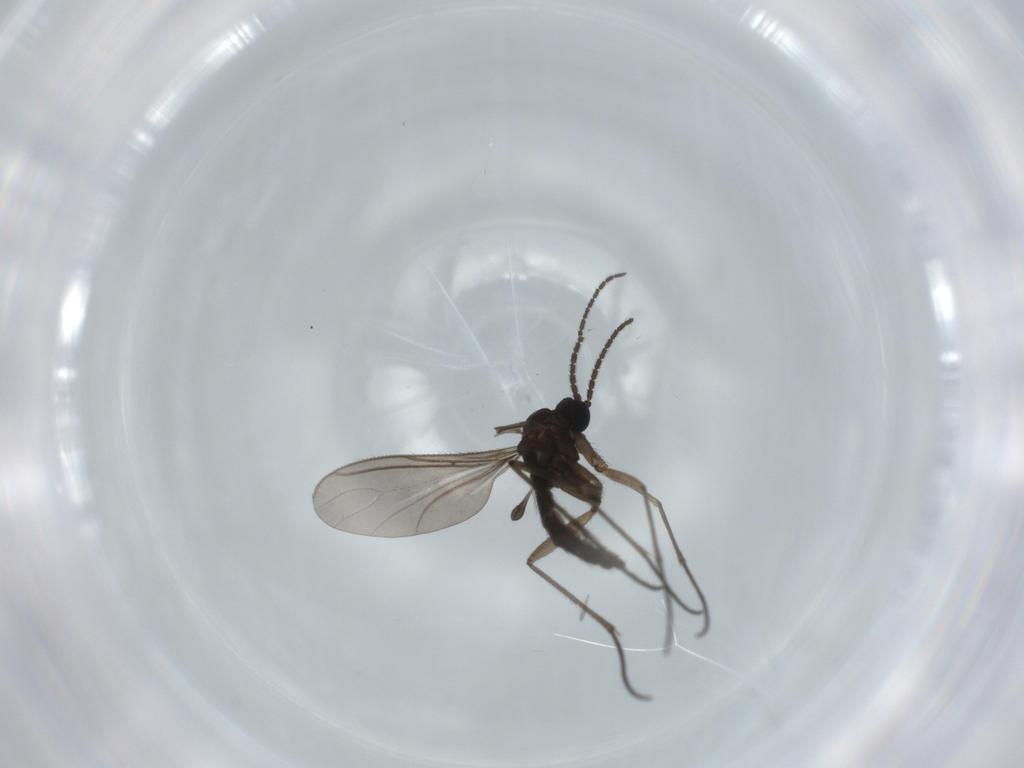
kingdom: Animalia
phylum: Arthropoda
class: Insecta
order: Diptera
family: Sciaridae
